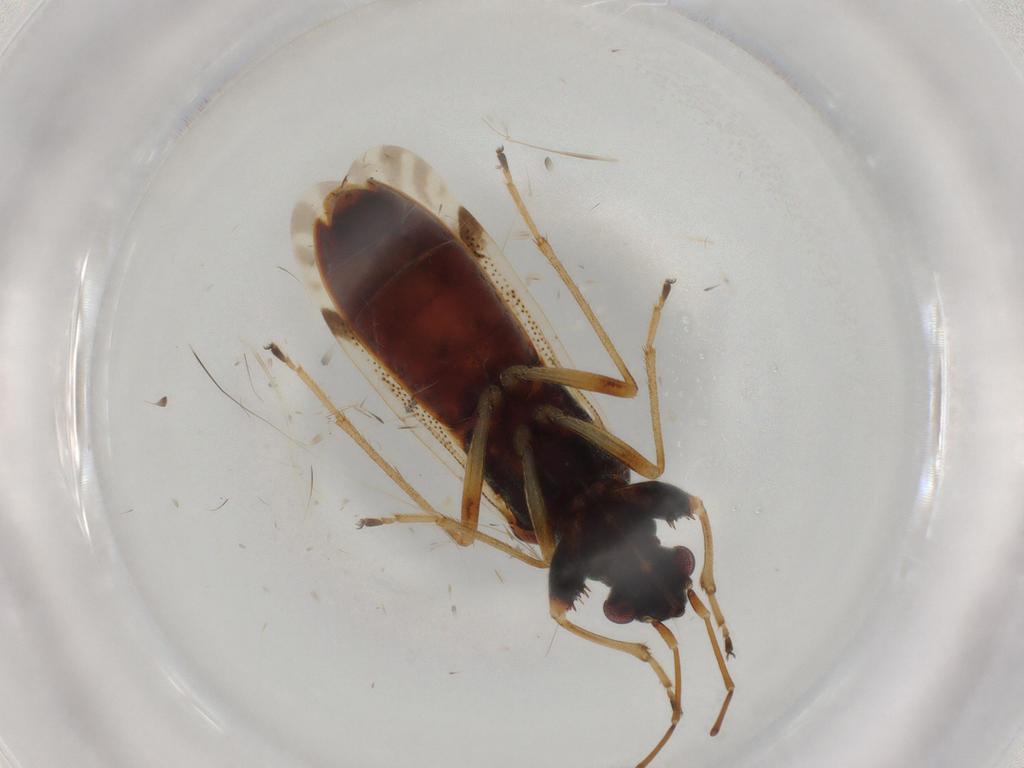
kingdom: Animalia
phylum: Arthropoda
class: Insecta
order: Hemiptera
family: Rhyparochromidae
